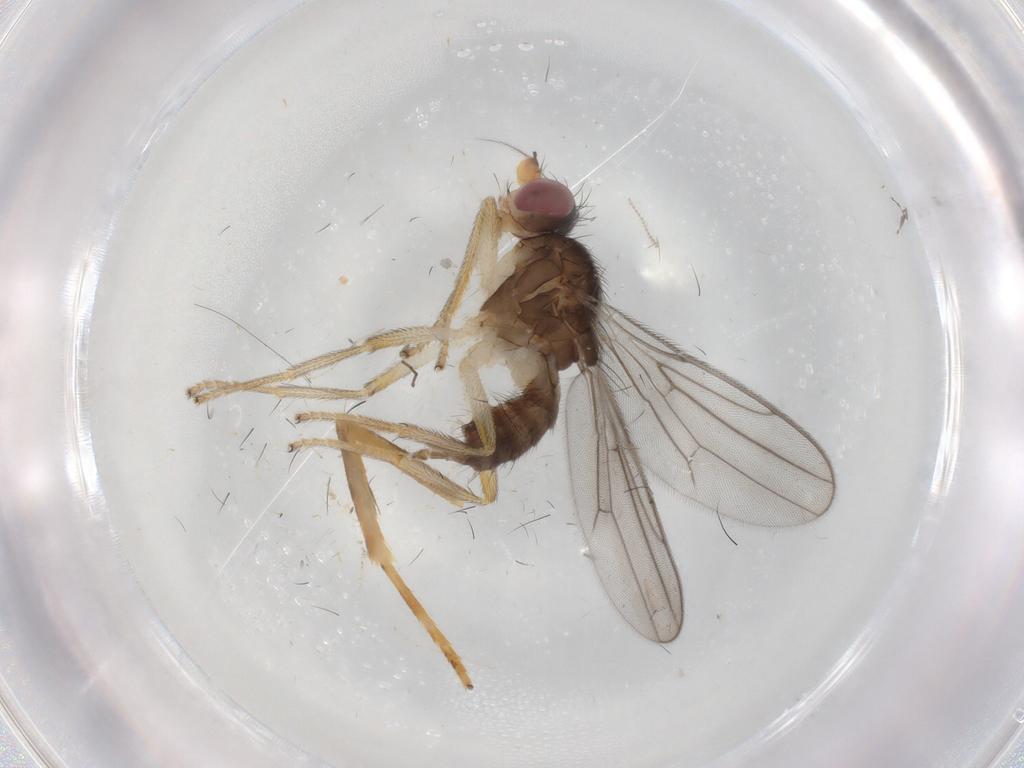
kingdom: Animalia
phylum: Arthropoda
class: Insecta
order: Diptera
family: Chloropidae
